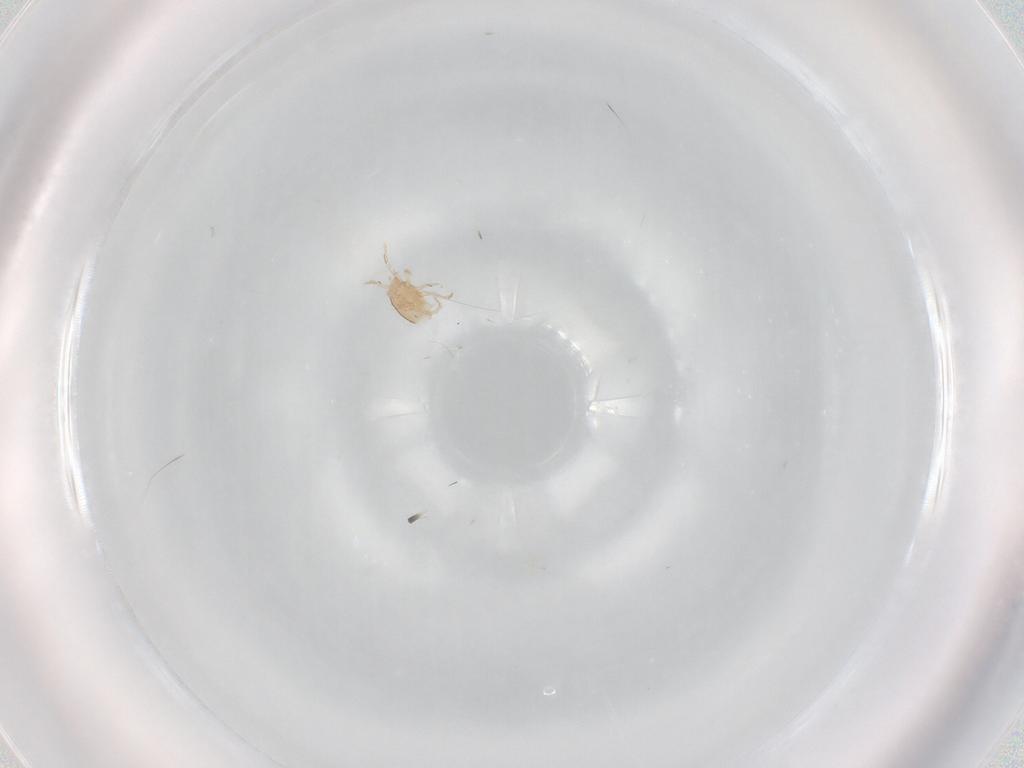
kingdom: Animalia
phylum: Arthropoda
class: Arachnida
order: Mesostigmata
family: Melicharidae
